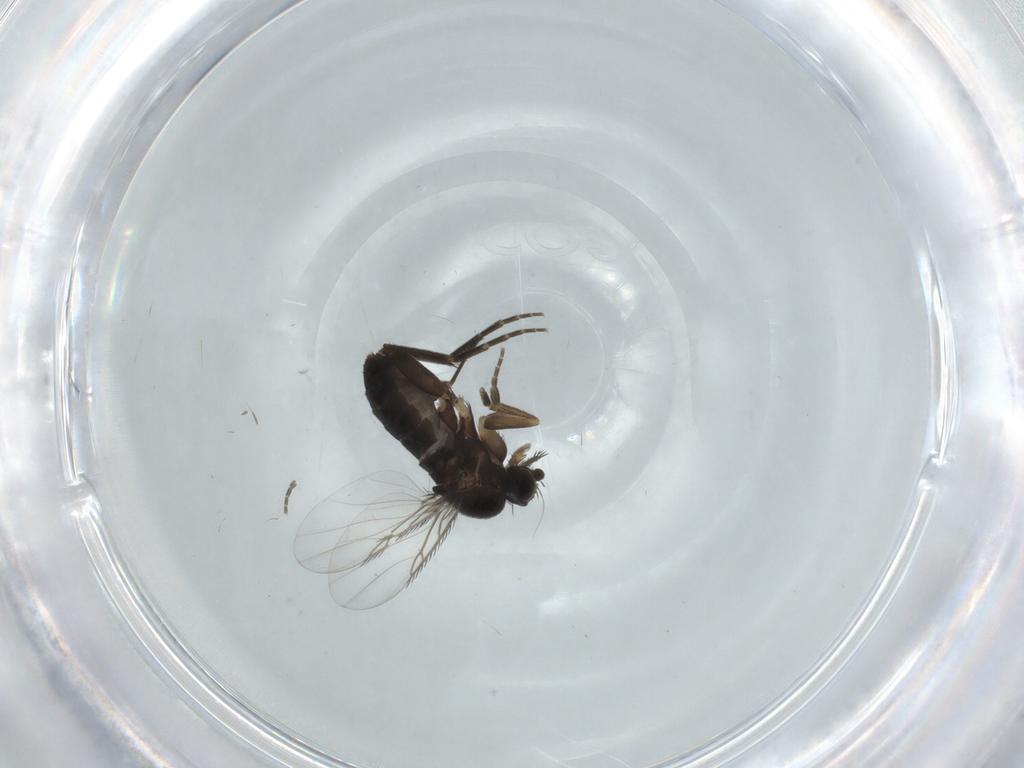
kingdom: Animalia
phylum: Arthropoda
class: Insecta
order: Diptera
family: Phoridae
